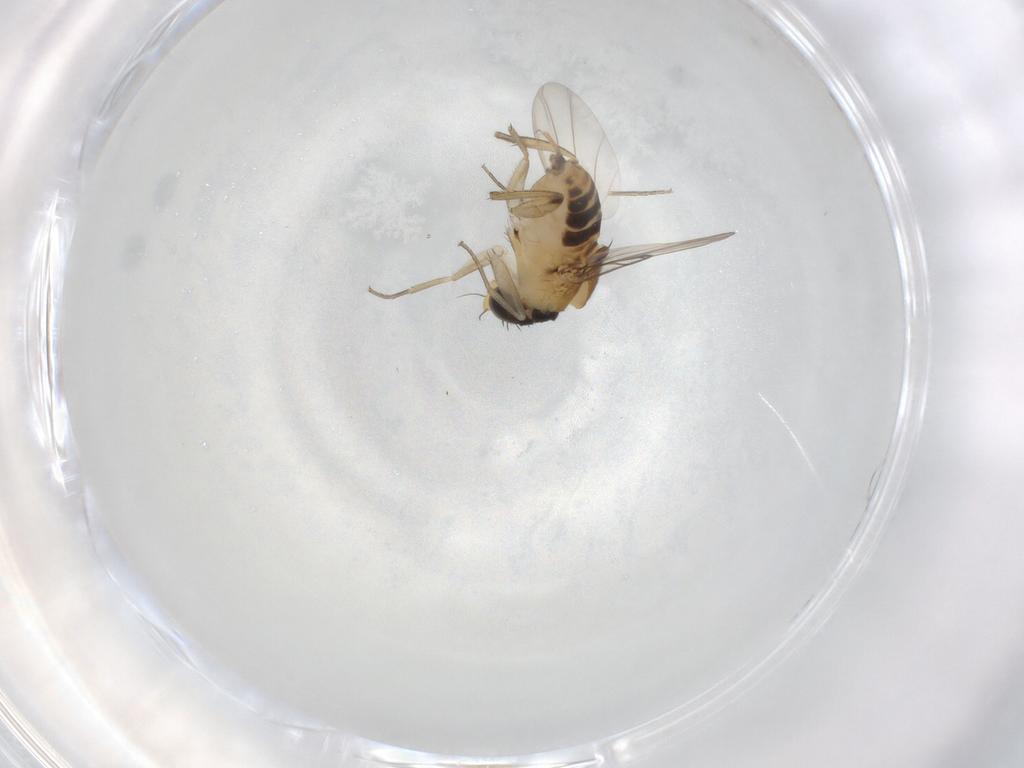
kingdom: Animalia
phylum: Arthropoda
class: Insecta
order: Diptera
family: Phoridae
